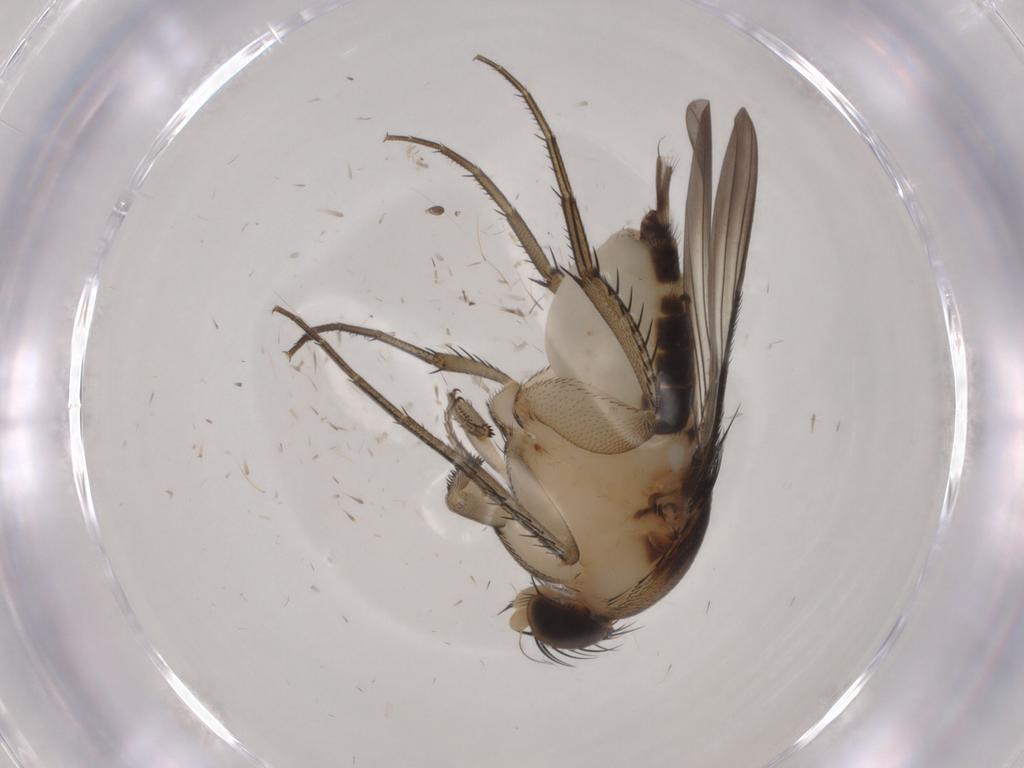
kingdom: Animalia
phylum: Arthropoda
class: Insecta
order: Diptera
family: Phoridae
